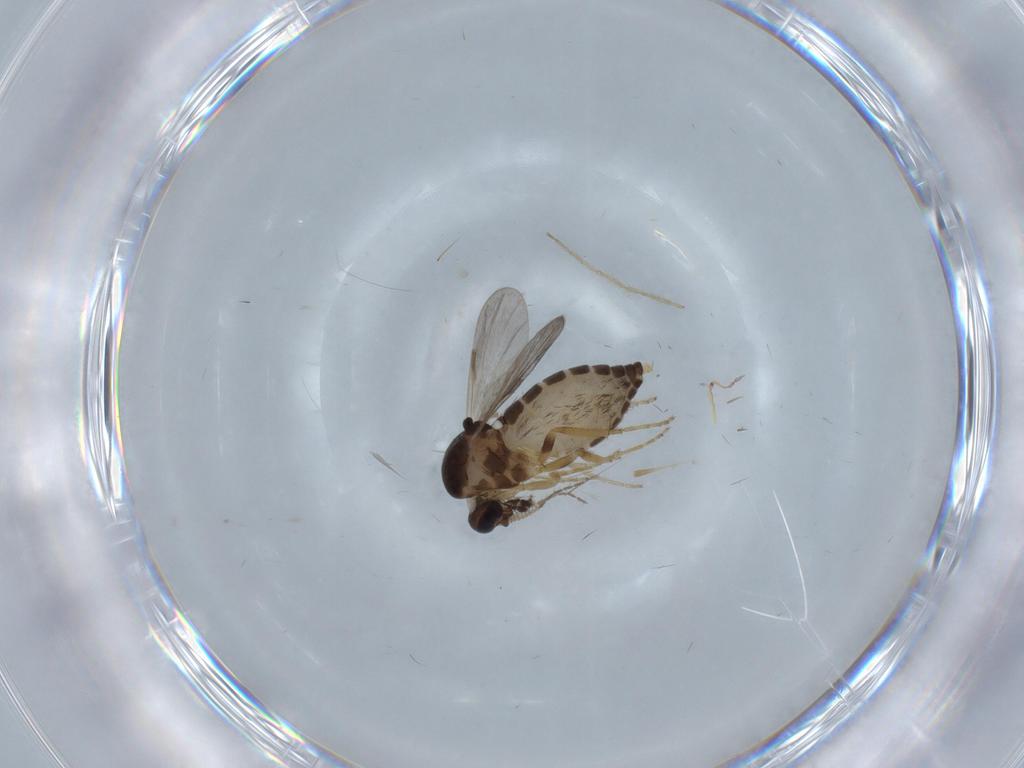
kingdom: Animalia
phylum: Arthropoda
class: Insecta
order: Diptera
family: Ceratopogonidae
